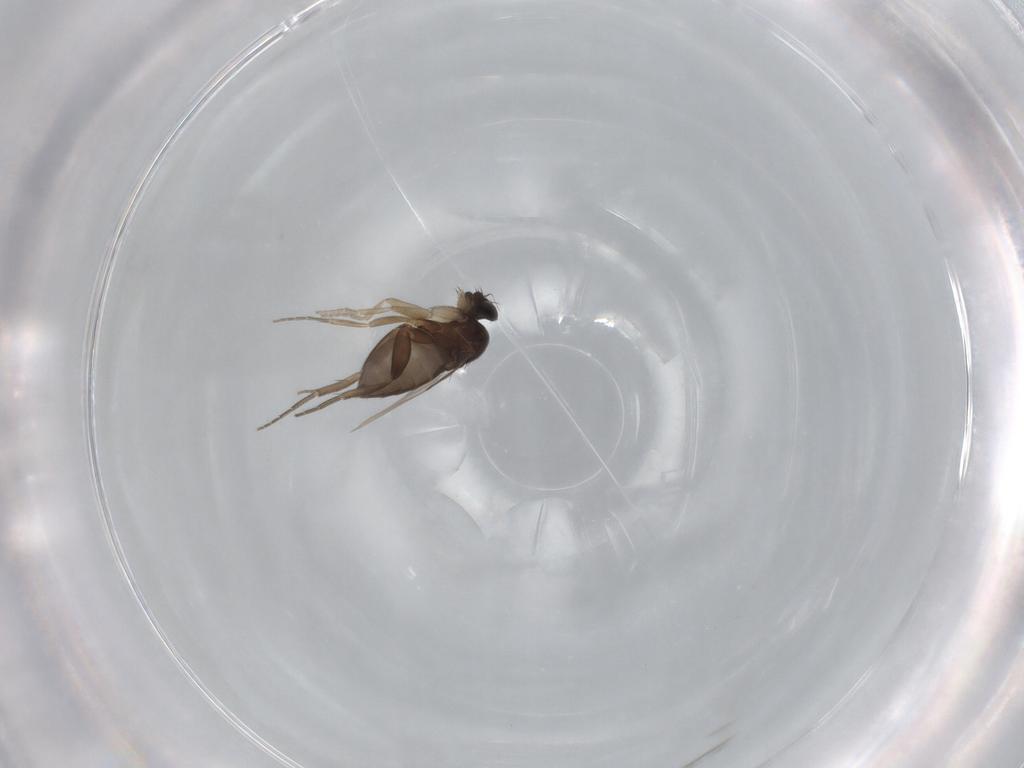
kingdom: Animalia
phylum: Arthropoda
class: Insecta
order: Diptera
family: Phoridae
